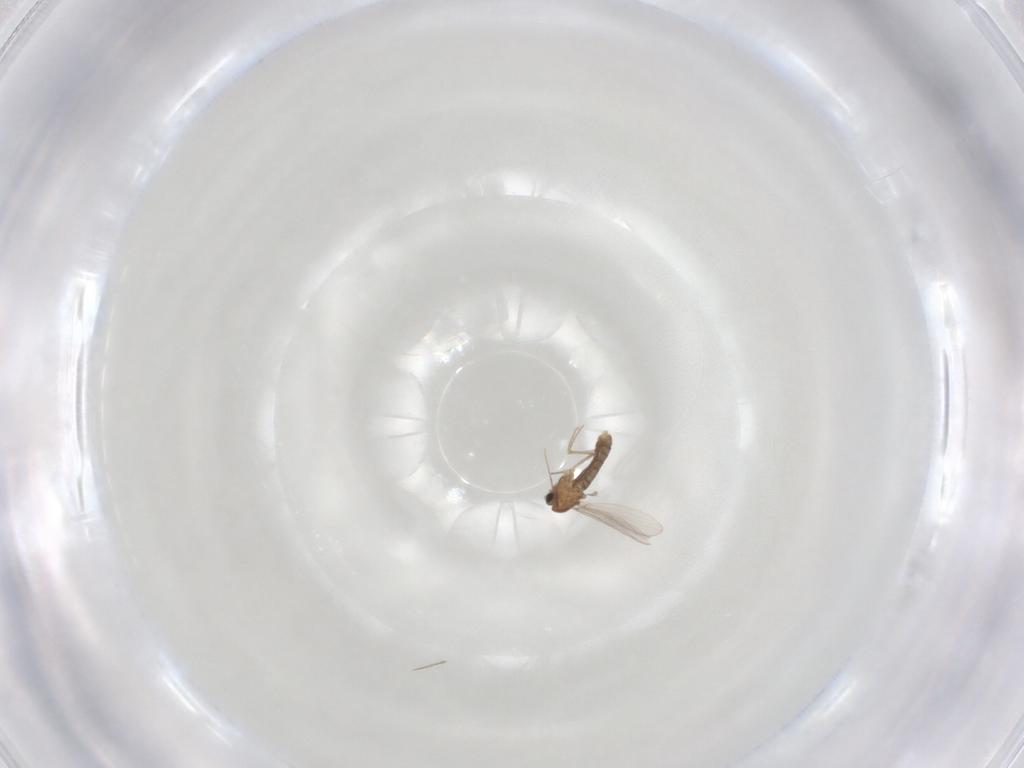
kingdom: Animalia
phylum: Arthropoda
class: Insecta
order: Diptera
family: Chironomidae
